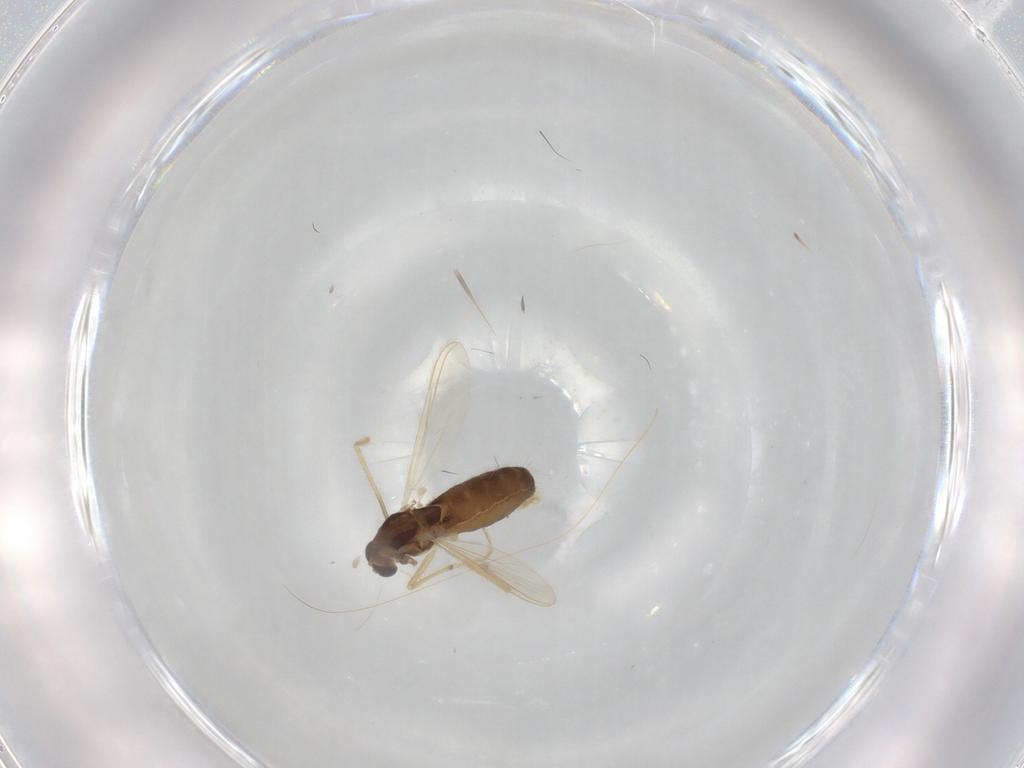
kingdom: Animalia
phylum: Arthropoda
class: Insecta
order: Diptera
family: Chironomidae
